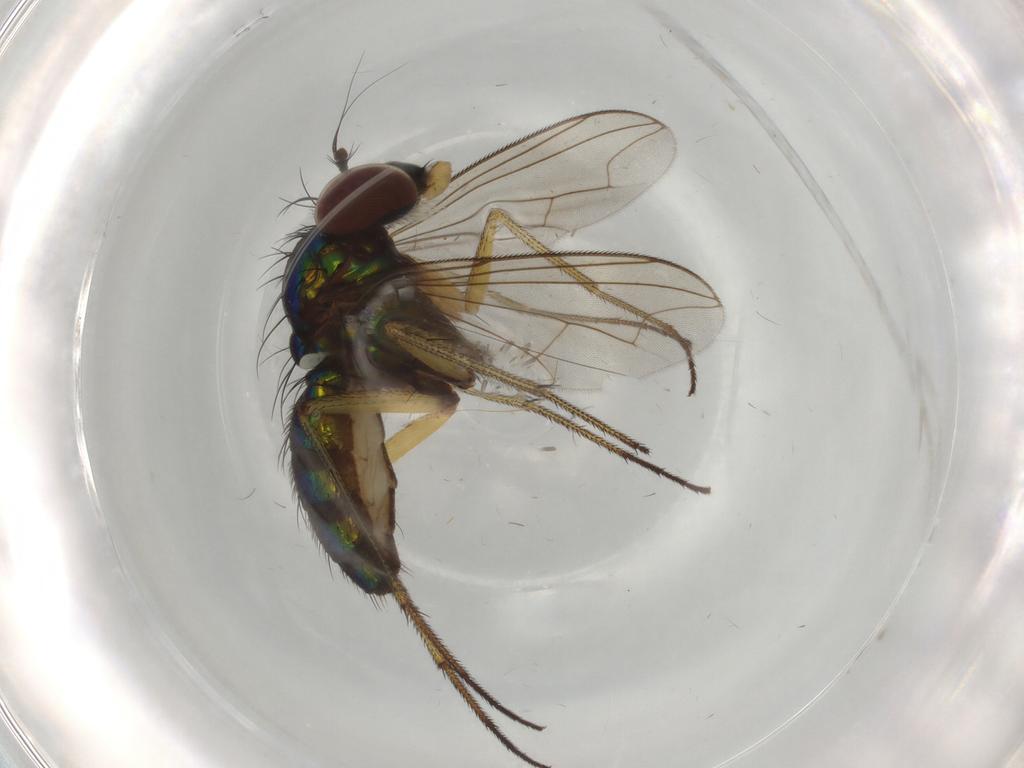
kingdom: Animalia
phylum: Arthropoda
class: Insecta
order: Diptera
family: Dolichopodidae
